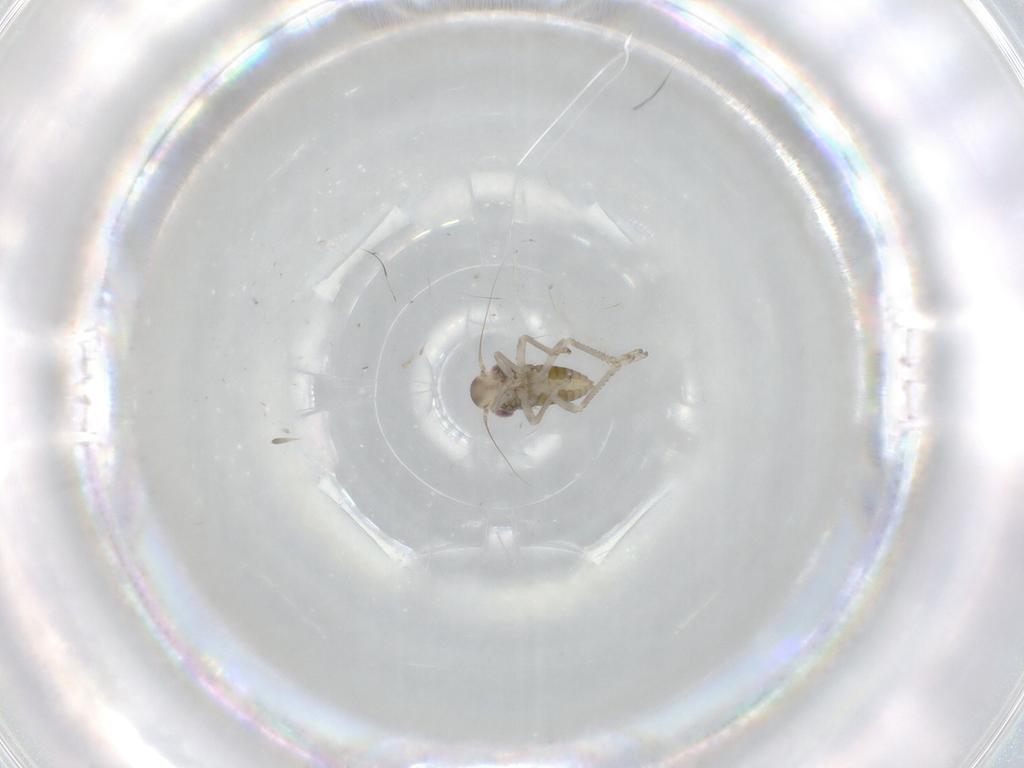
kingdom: Animalia
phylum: Arthropoda
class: Insecta
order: Hemiptera
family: Cicadellidae
